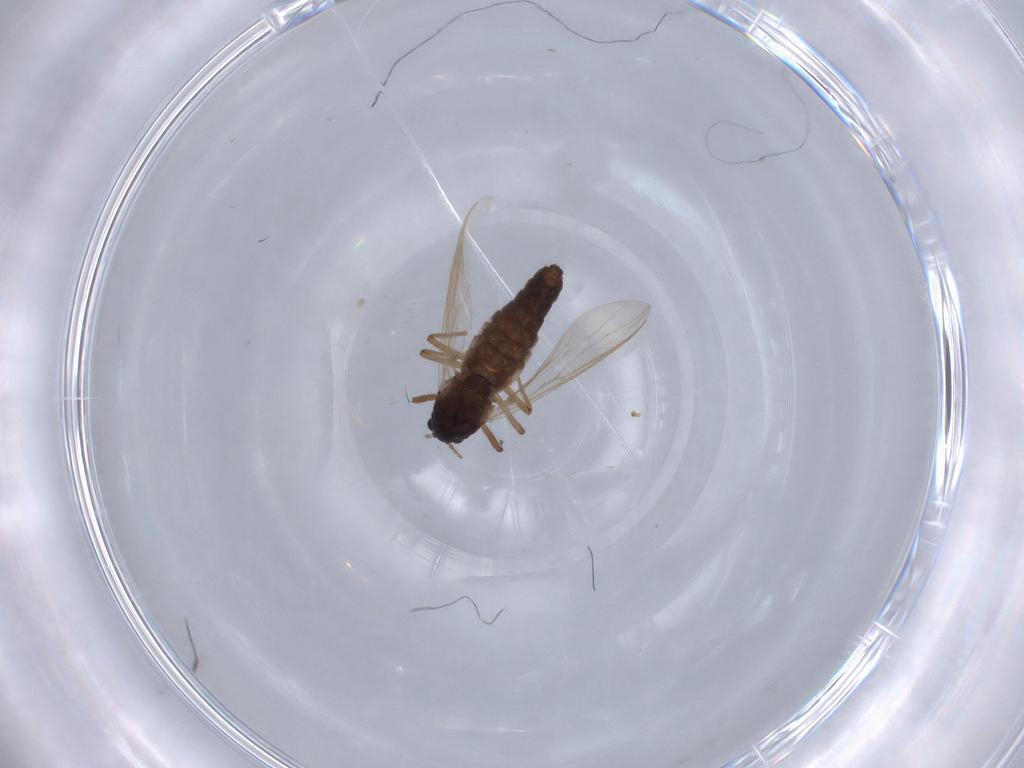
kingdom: Animalia
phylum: Arthropoda
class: Insecta
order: Diptera
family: Chironomidae
